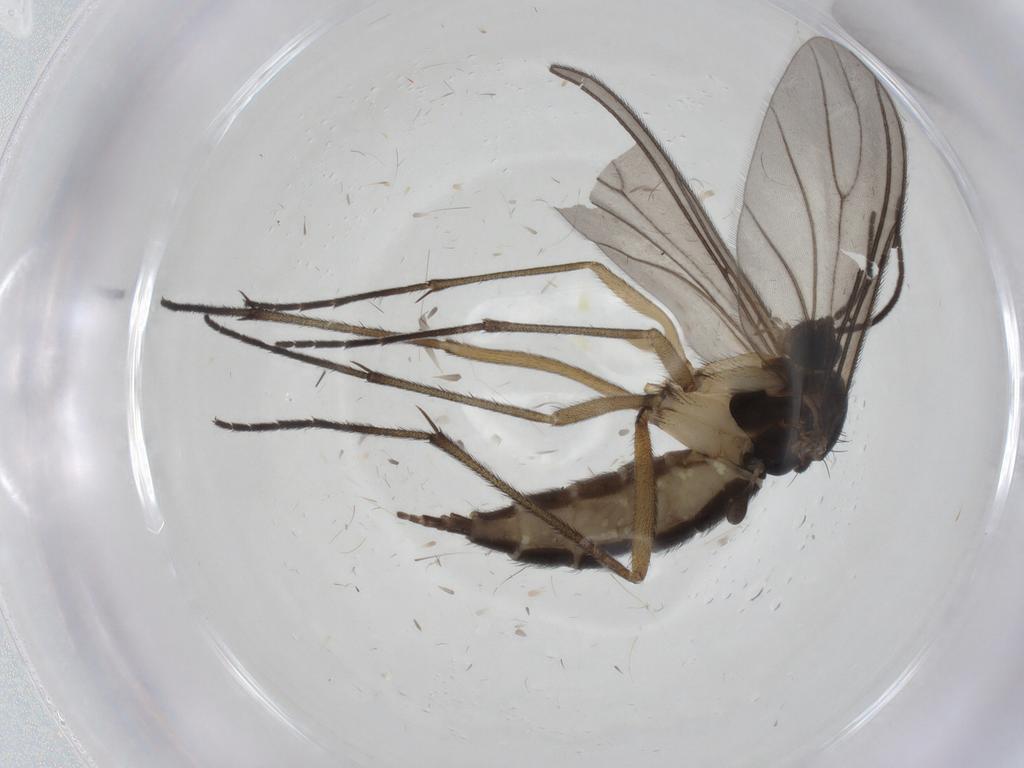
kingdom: Animalia
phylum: Arthropoda
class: Insecta
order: Diptera
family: Sciaridae
